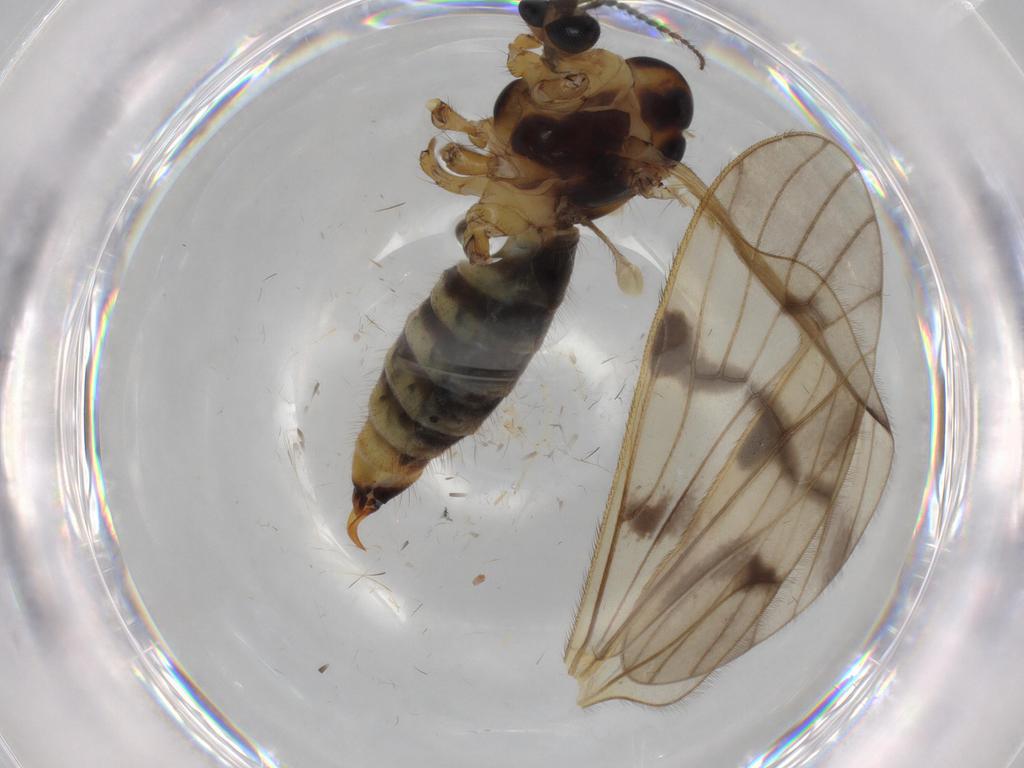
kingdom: Animalia
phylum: Arthropoda
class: Insecta
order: Diptera
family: Limoniidae
